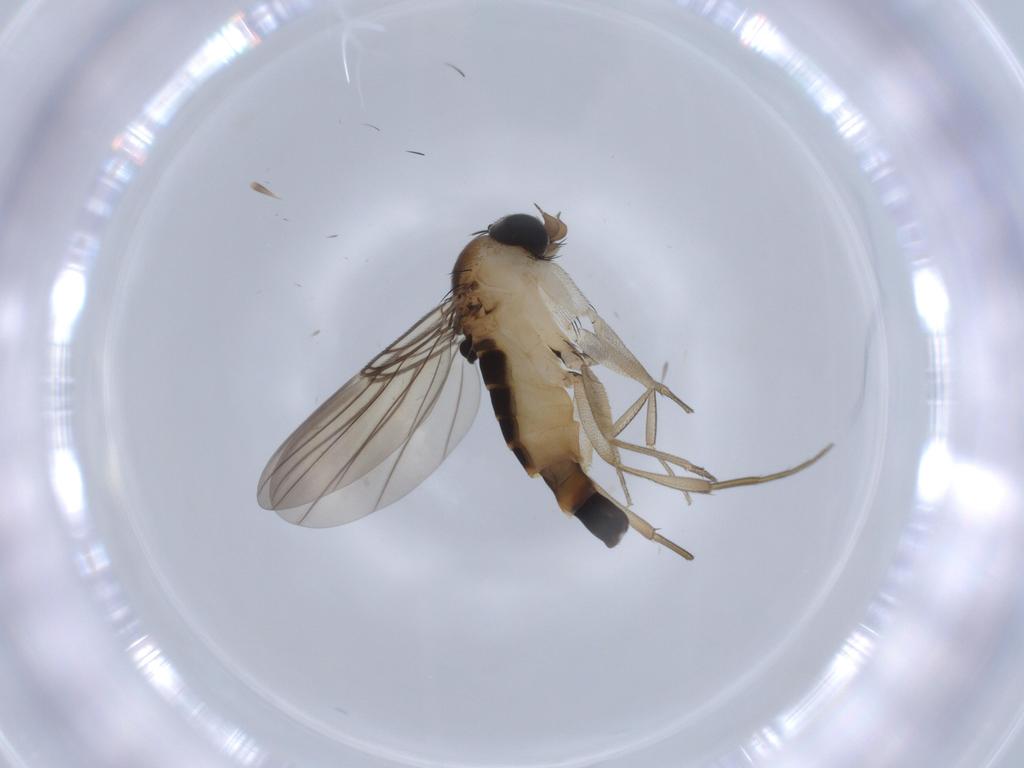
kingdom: Animalia
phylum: Arthropoda
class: Insecta
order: Diptera
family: Phoridae
